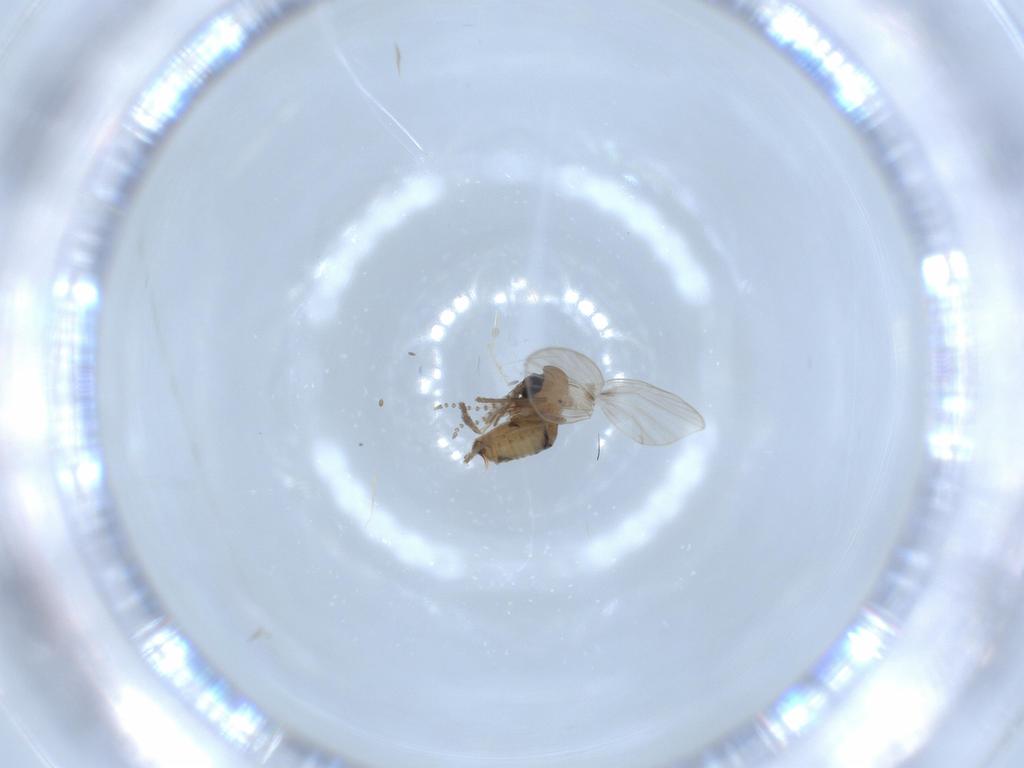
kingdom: Animalia
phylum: Arthropoda
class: Insecta
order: Diptera
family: Psychodidae
